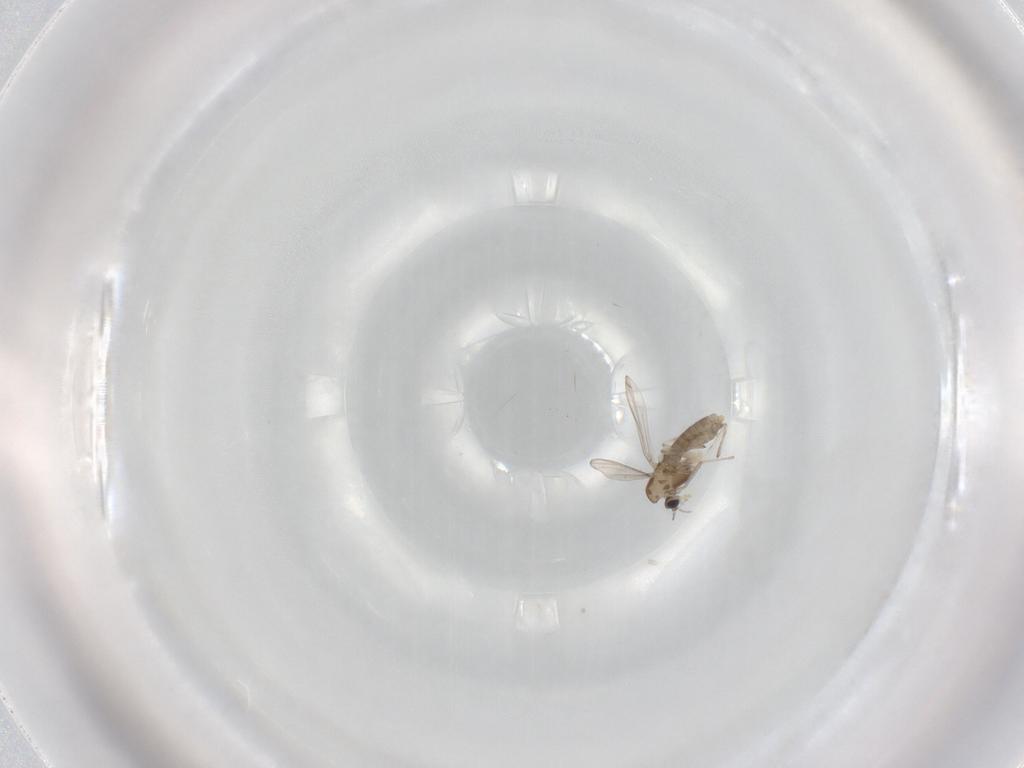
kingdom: Animalia
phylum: Arthropoda
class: Insecta
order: Diptera
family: Chironomidae
